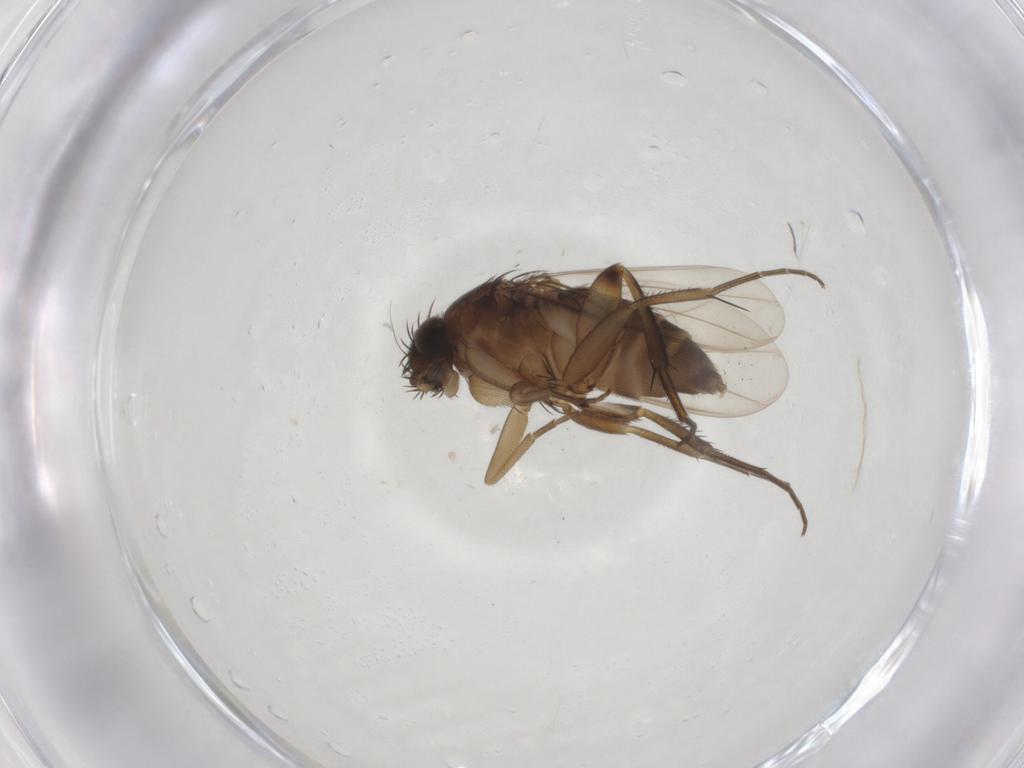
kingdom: Animalia
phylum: Arthropoda
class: Insecta
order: Diptera
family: Phoridae
